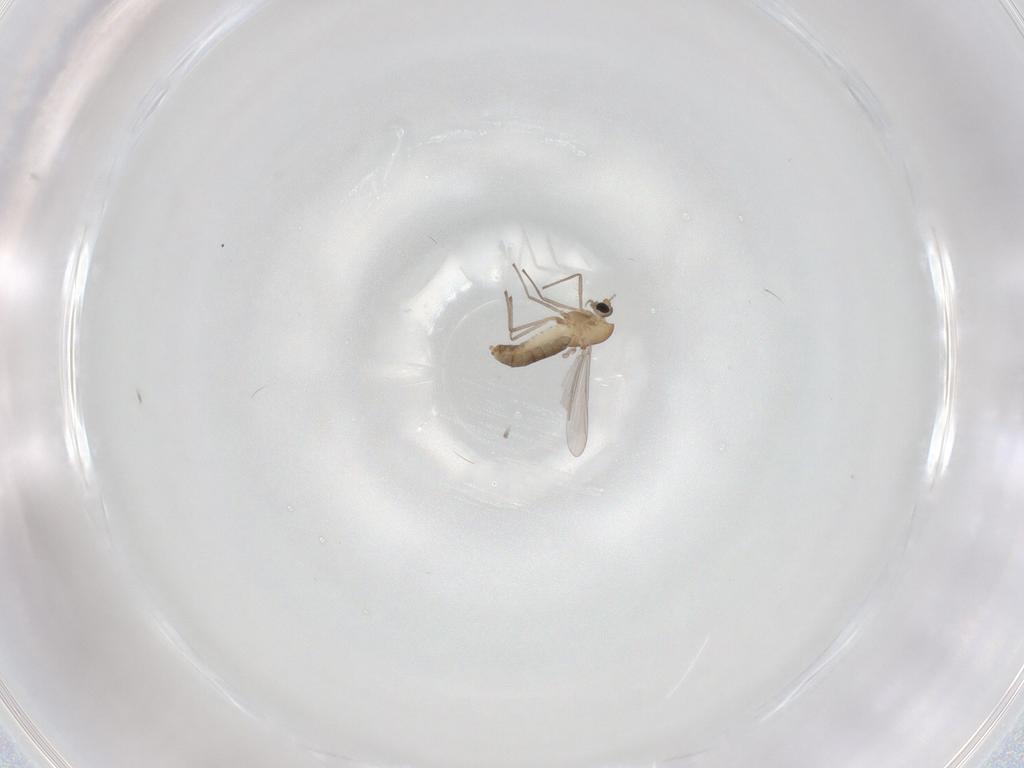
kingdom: Animalia
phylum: Arthropoda
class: Insecta
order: Diptera
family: Chironomidae
